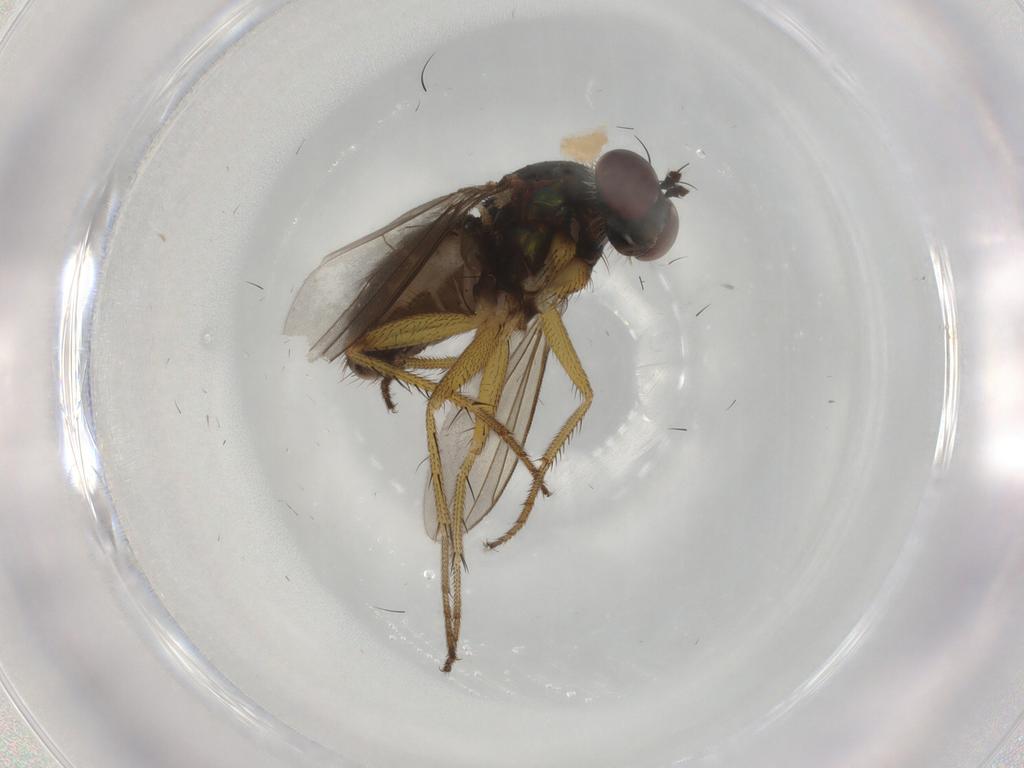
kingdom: Animalia
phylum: Arthropoda
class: Insecta
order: Diptera
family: Dolichopodidae
